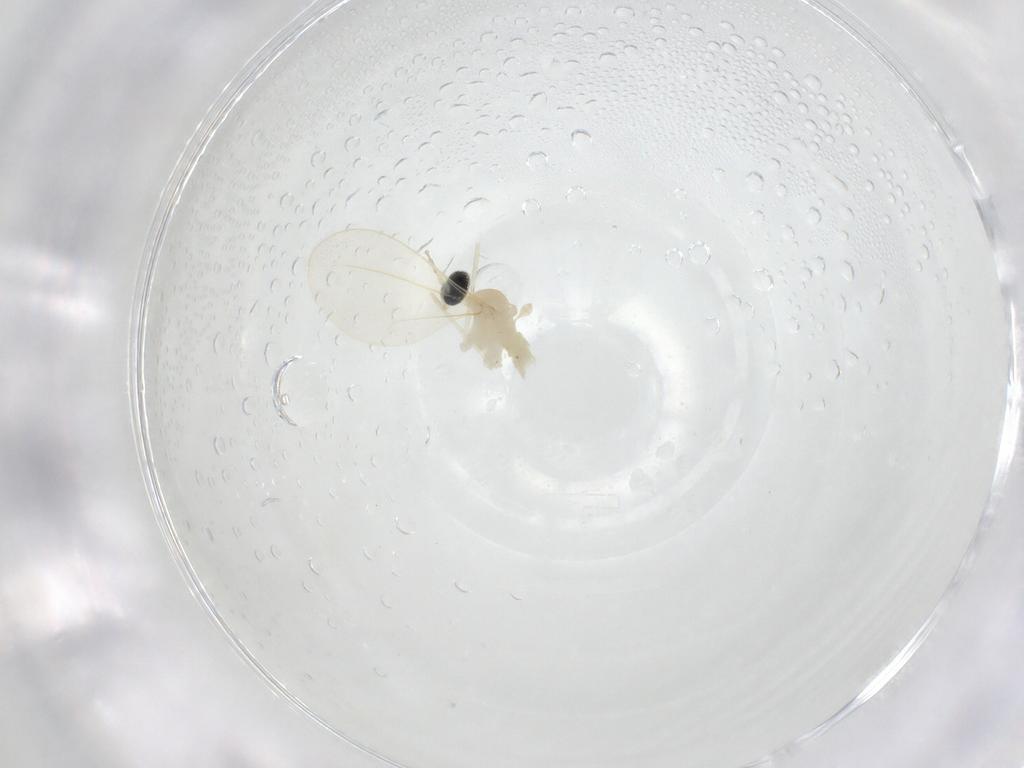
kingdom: Animalia
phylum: Arthropoda
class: Insecta
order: Diptera
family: Cecidomyiidae
